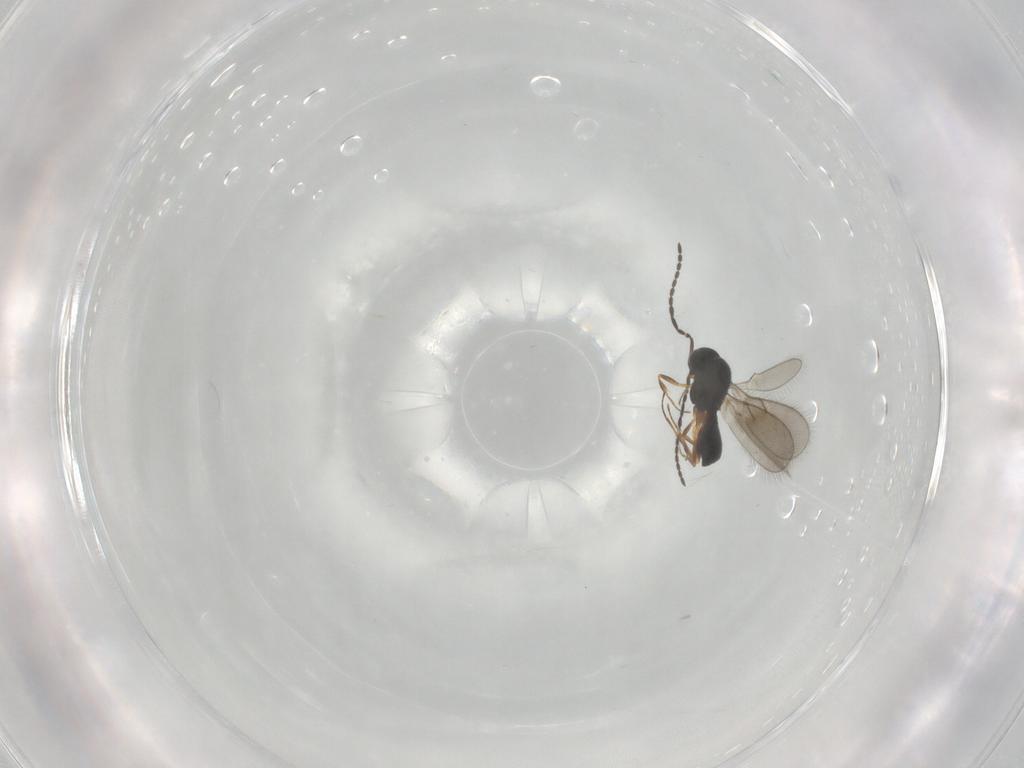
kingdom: Animalia
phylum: Arthropoda
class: Insecta
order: Hymenoptera
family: Scelionidae
